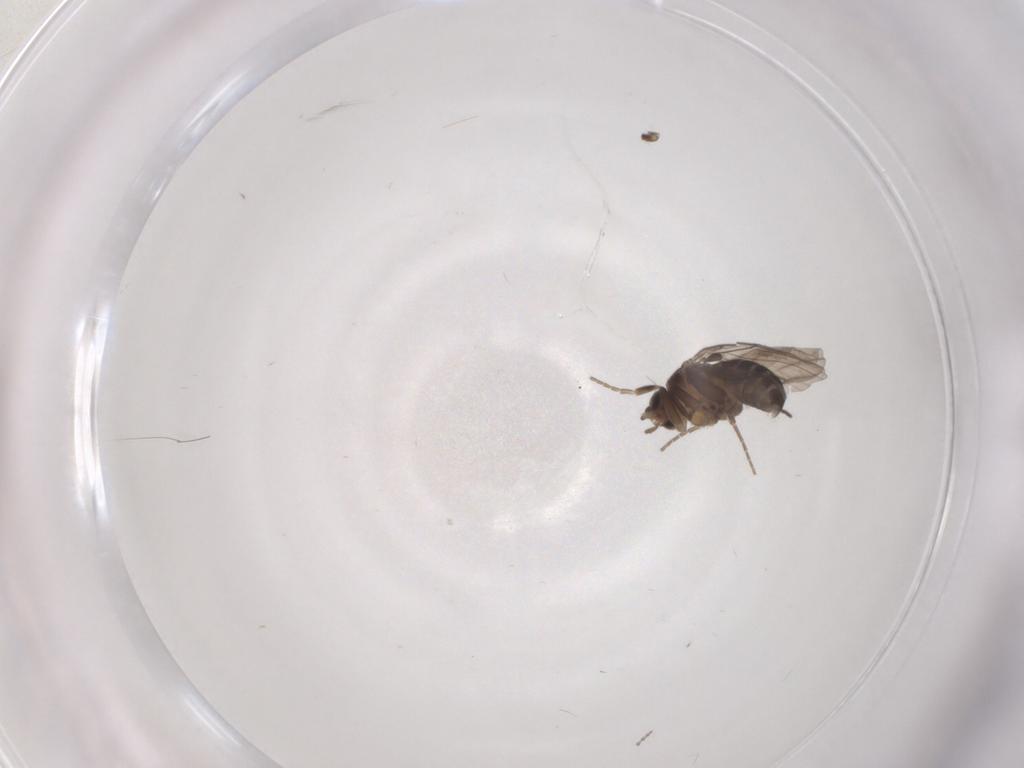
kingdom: Animalia
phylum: Arthropoda
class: Insecta
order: Diptera
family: Cecidomyiidae
